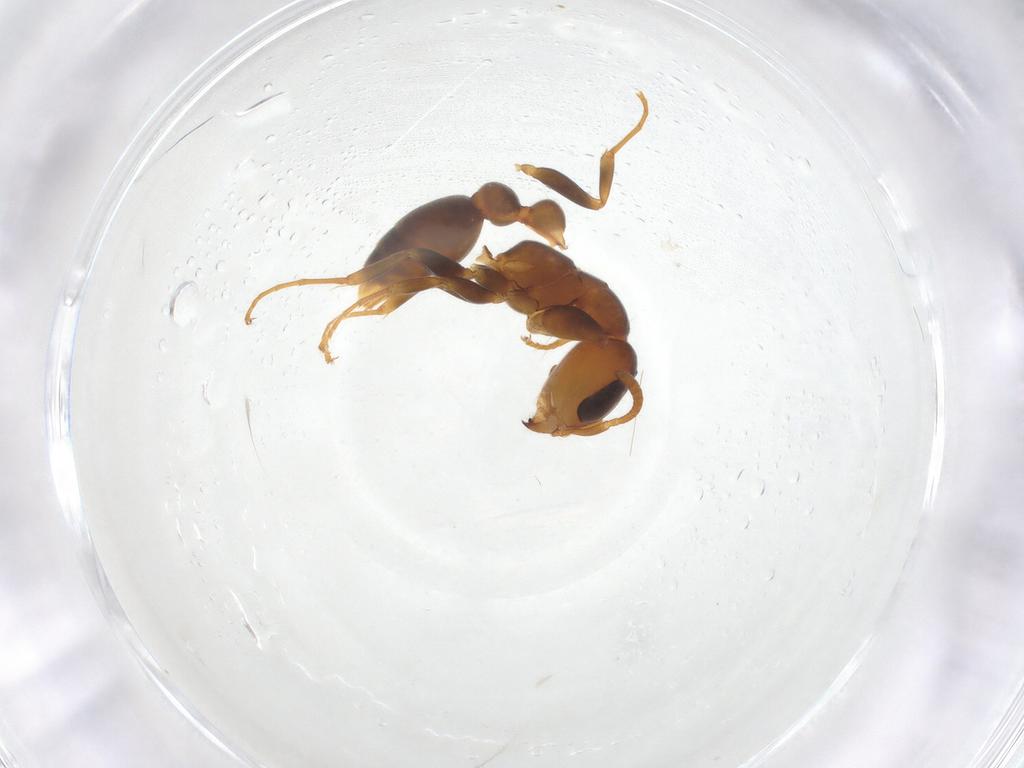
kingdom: Animalia
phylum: Arthropoda
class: Insecta
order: Hymenoptera
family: Formicidae
